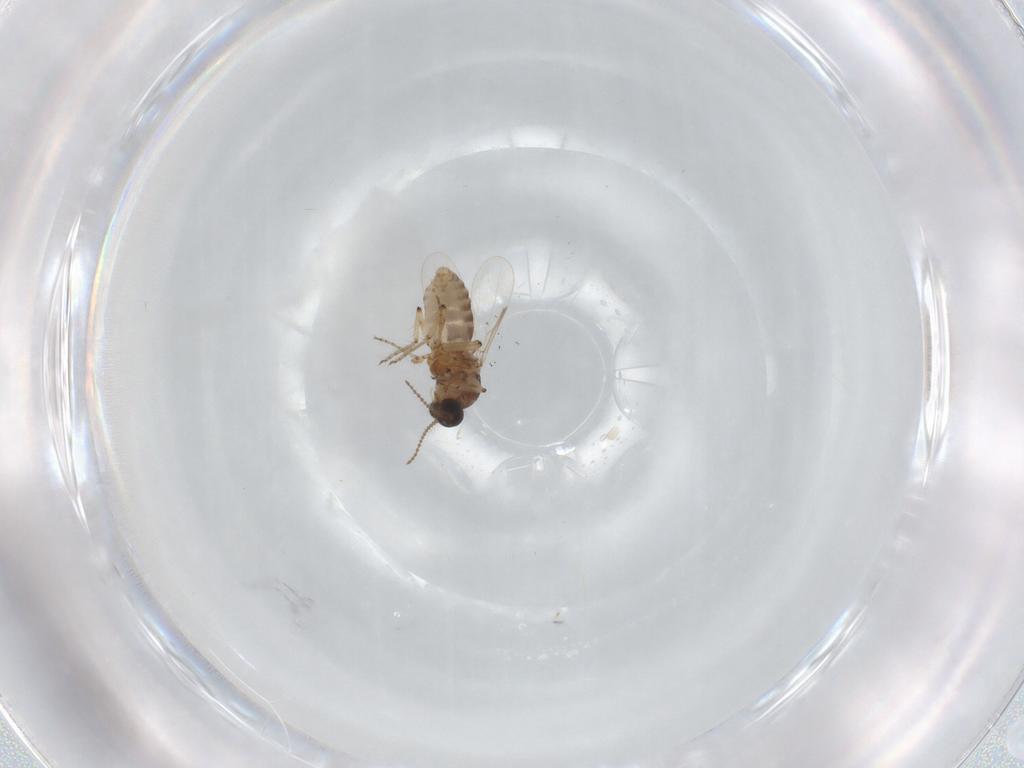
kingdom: Animalia
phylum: Arthropoda
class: Insecta
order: Diptera
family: Ceratopogonidae
